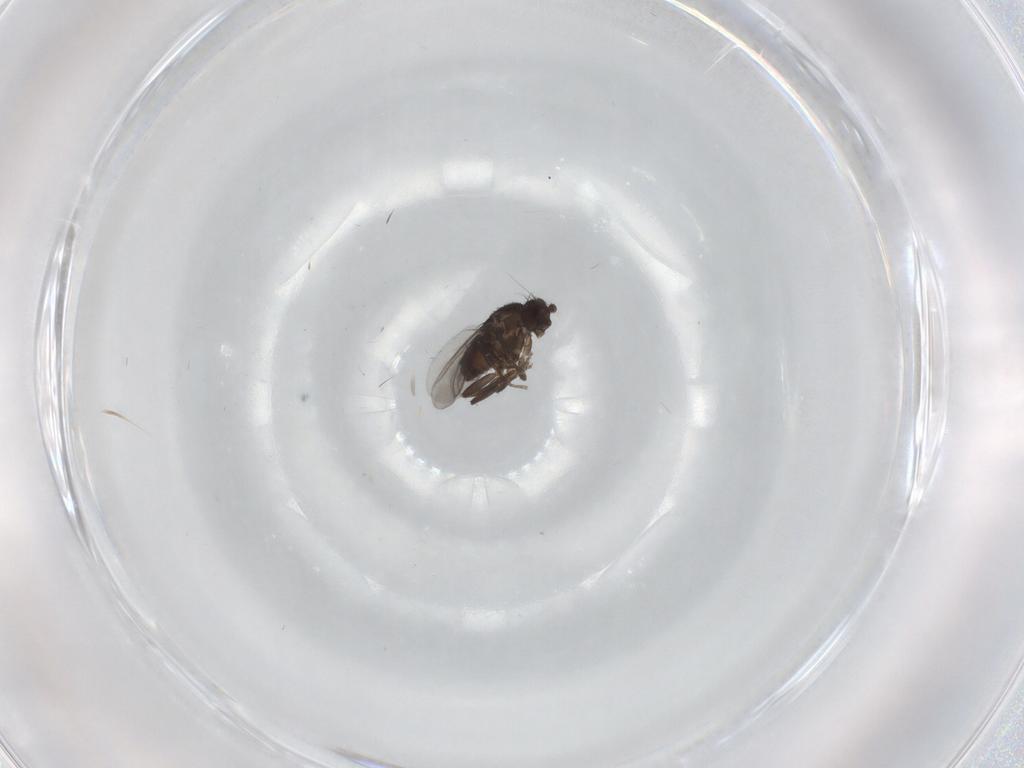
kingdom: Animalia
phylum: Arthropoda
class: Insecta
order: Diptera
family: Sphaeroceridae
